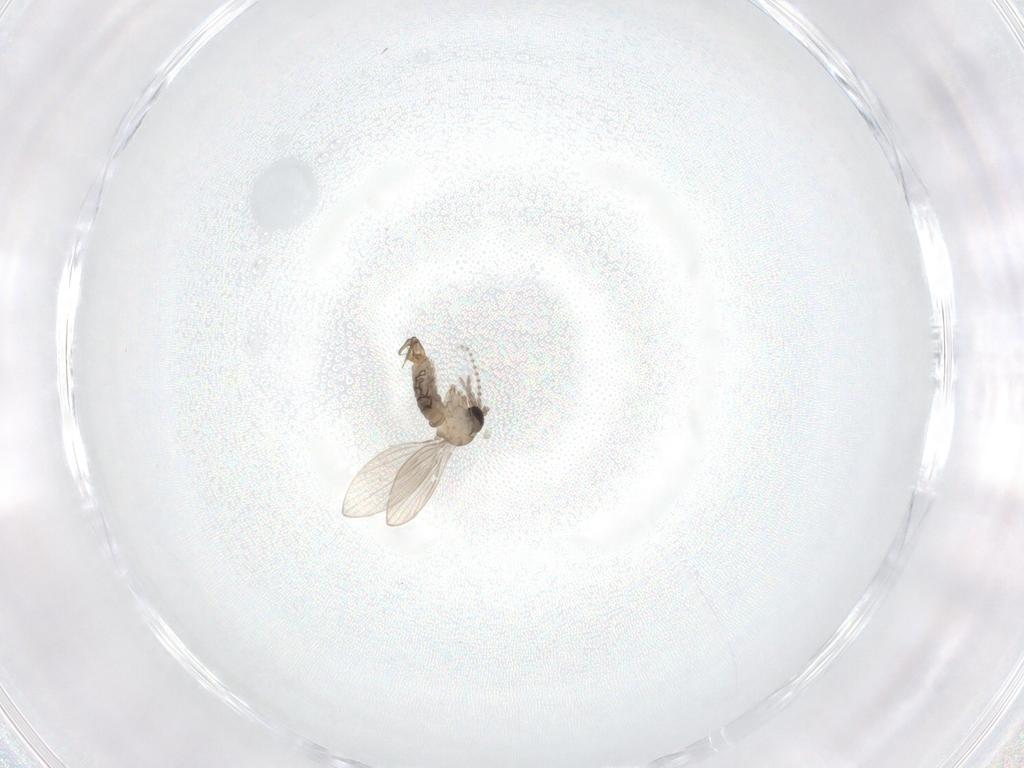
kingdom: Animalia
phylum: Arthropoda
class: Insecta
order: Diptera
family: Psychodidae
